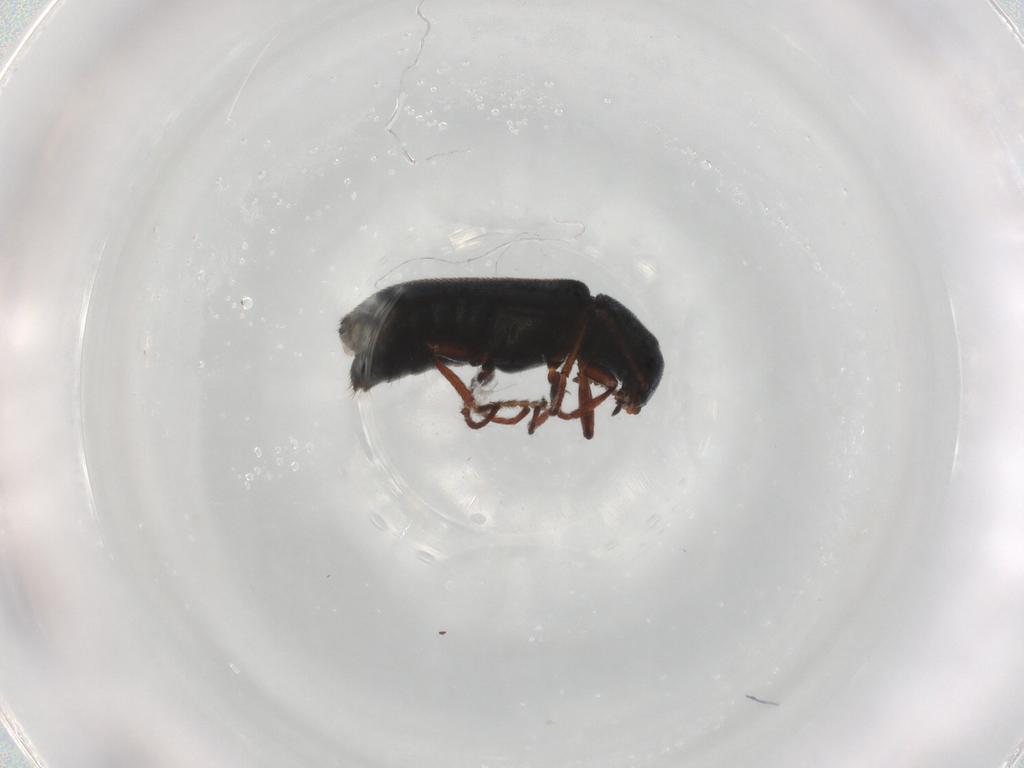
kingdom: Animalia
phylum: Arthropoda
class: Insecta
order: Coleoptera
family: Melyridae
